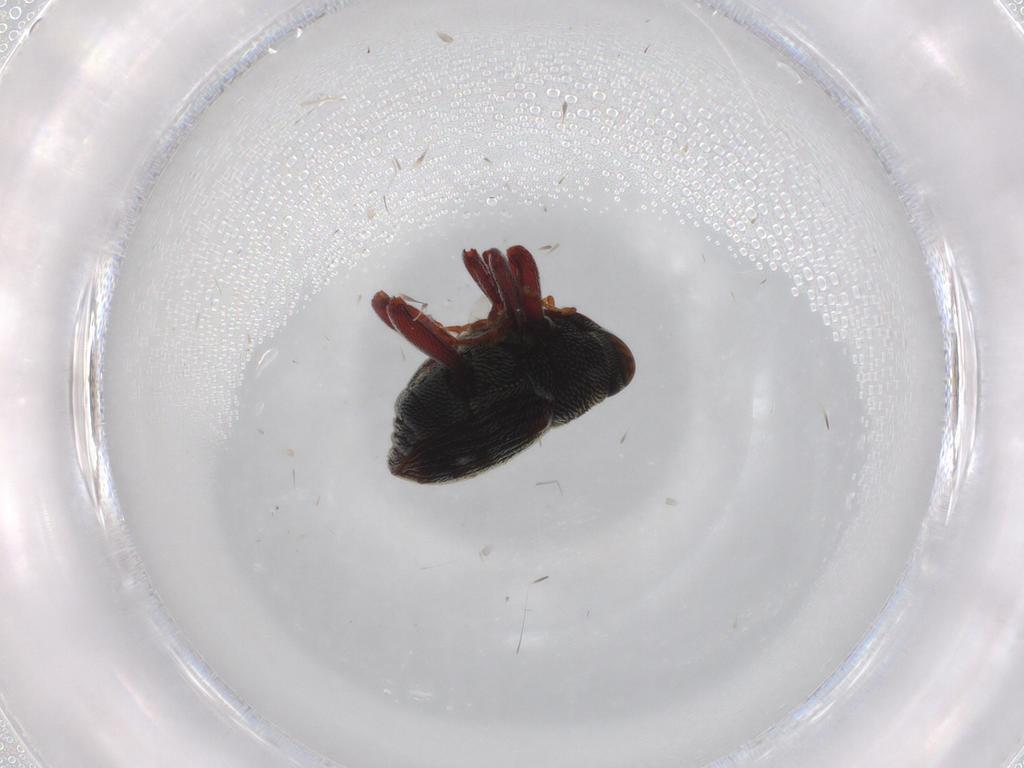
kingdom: Animalia
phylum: Arthropoda
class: Insecta
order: Coleoptera
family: Curculionidae
